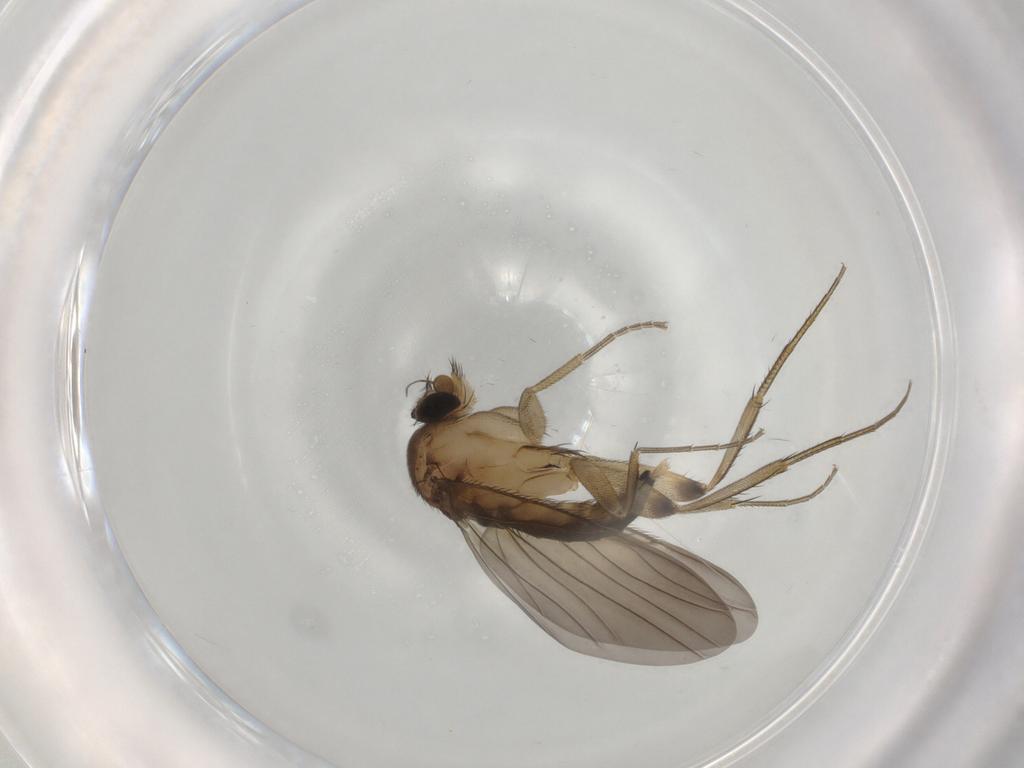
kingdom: Animalia
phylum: Arthropoda
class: Insecta
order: Diptera
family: Phoridae
